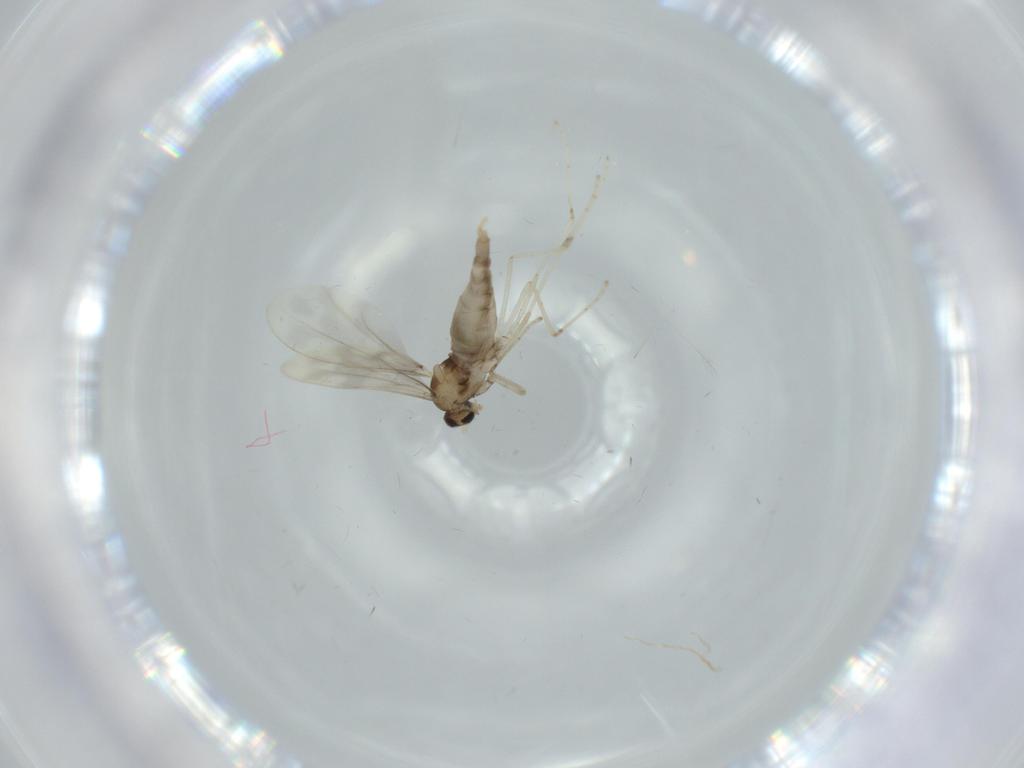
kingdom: Animalia
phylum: Arthropoda
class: Insecta
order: Diptera
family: Cecidomyiidae
